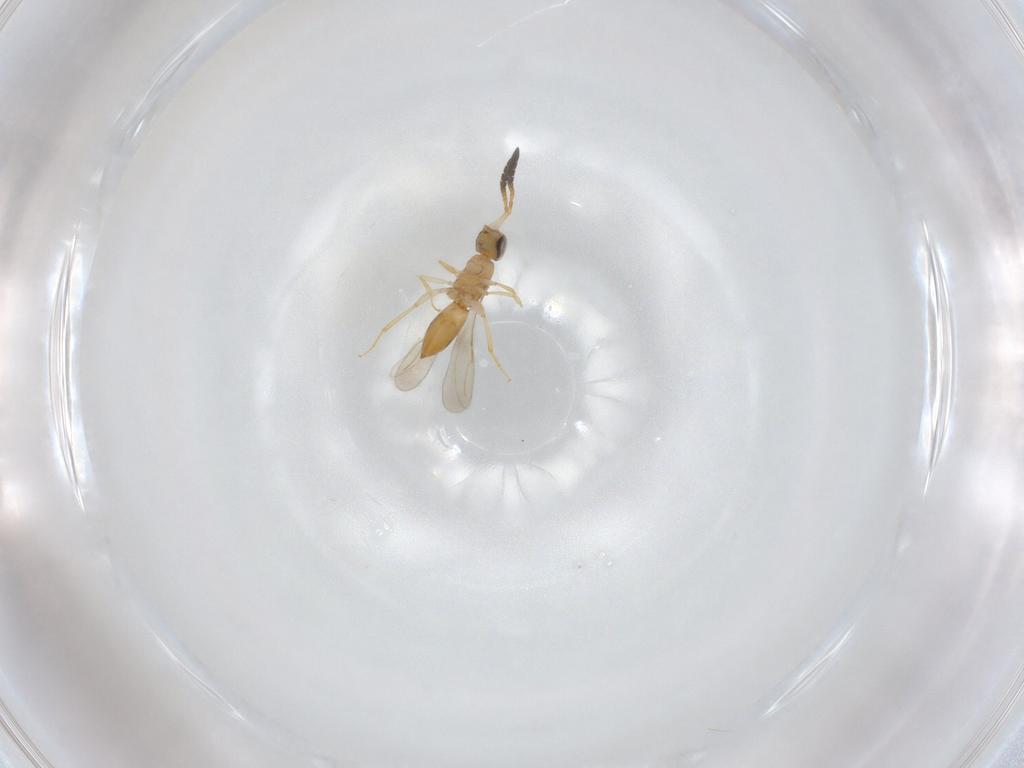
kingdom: Animalia
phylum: Arthropoda
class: Insecta
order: Hymenoptera
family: Ceraphronidae
